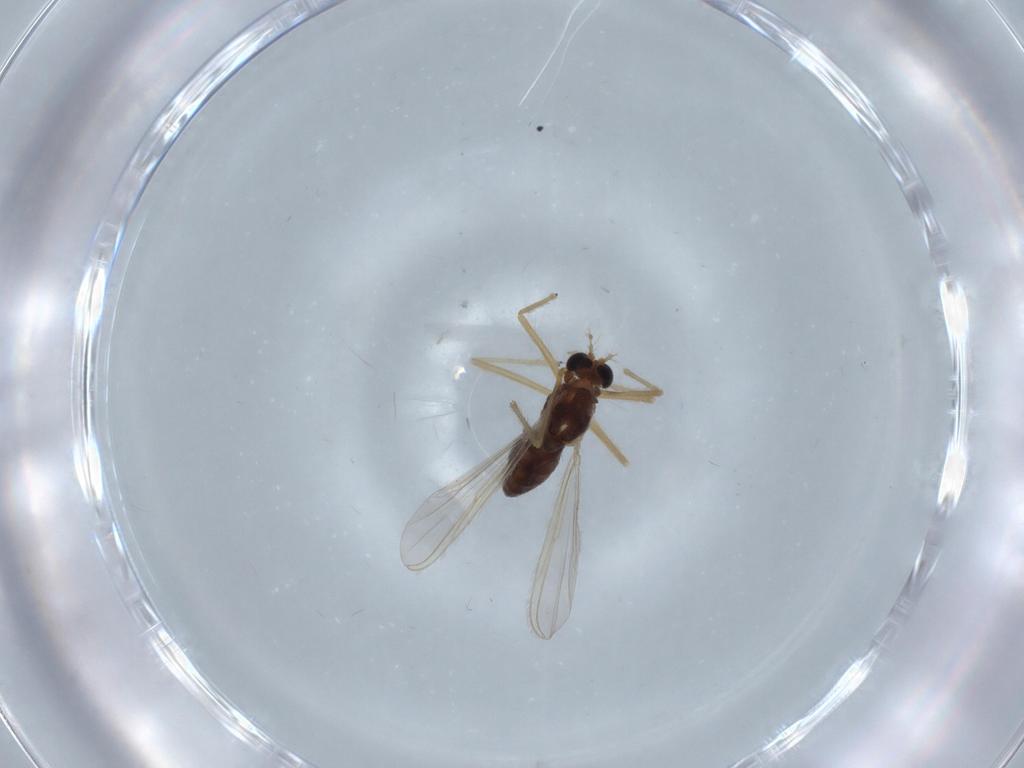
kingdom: Animalia
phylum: Arthropoda
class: Insecta
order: Diptera
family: Chironomidae
